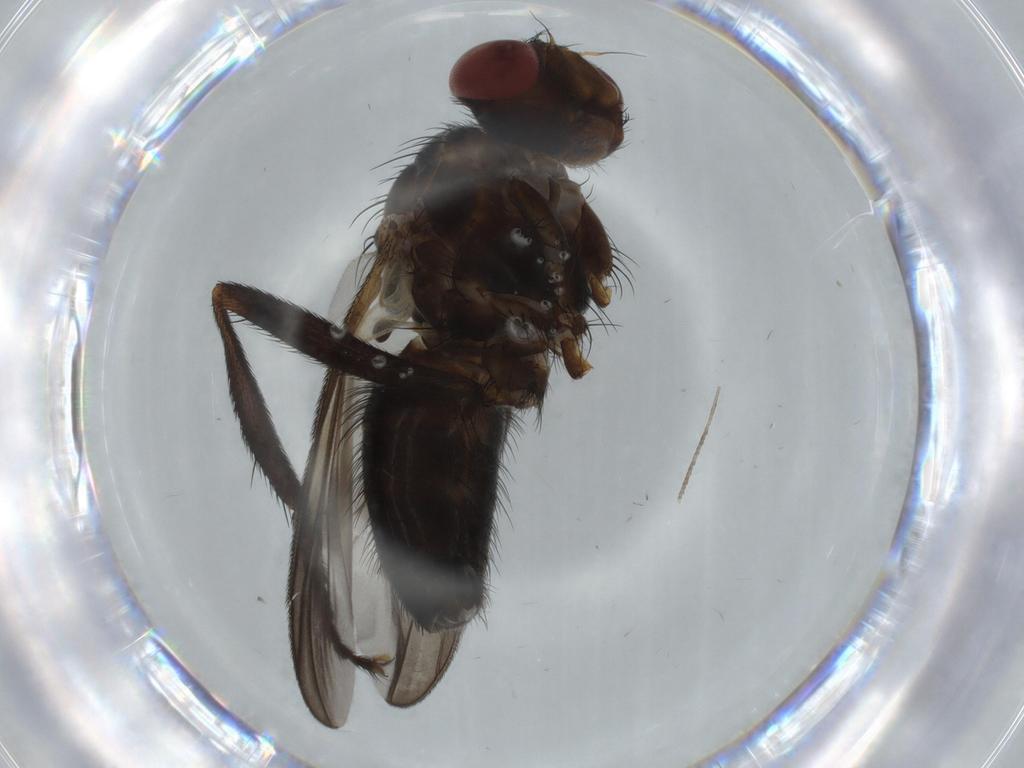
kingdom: Animalia
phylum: Arthropoda
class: Insecta
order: Diptera
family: Calliphoridae
